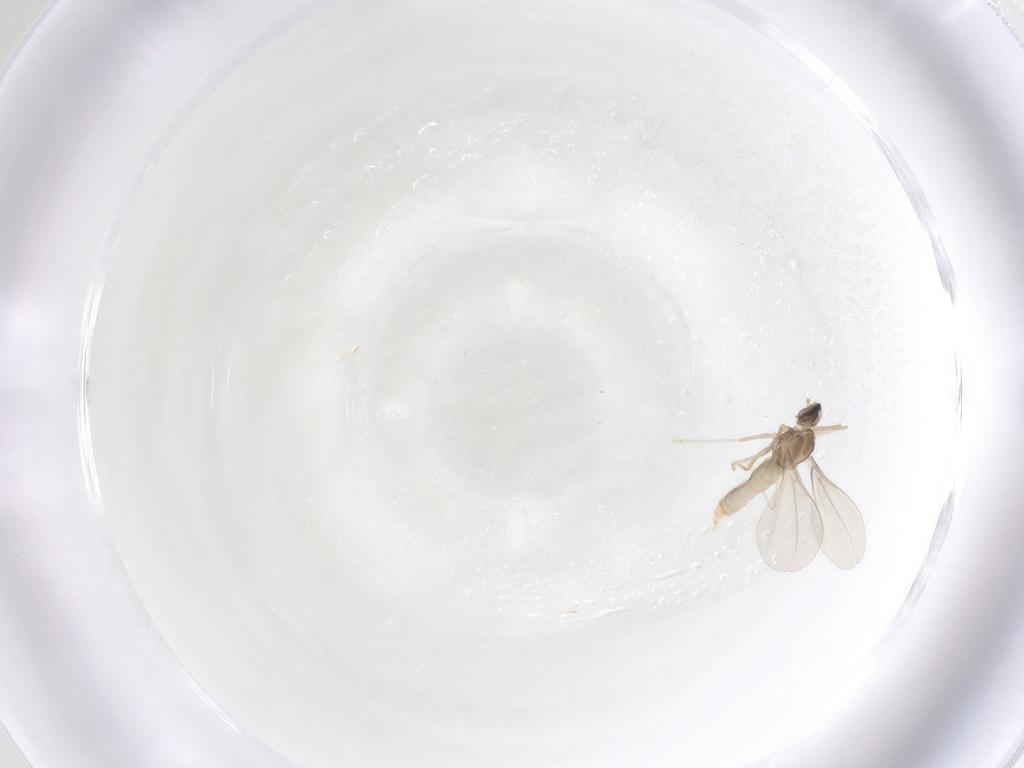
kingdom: Animalia
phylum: Arthropoda
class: Insecta
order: Diptera
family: Cecidomyiidae
